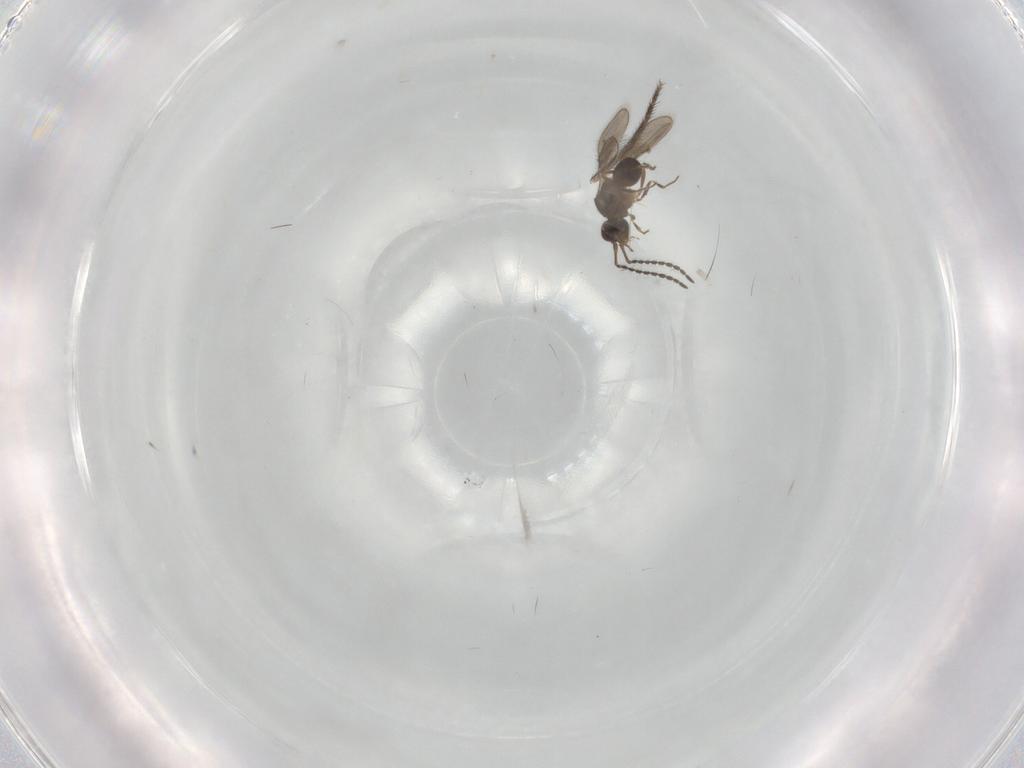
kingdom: Animalia
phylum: Arthropoda
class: Insecta
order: Hymenoptera
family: Ceraphronidae
